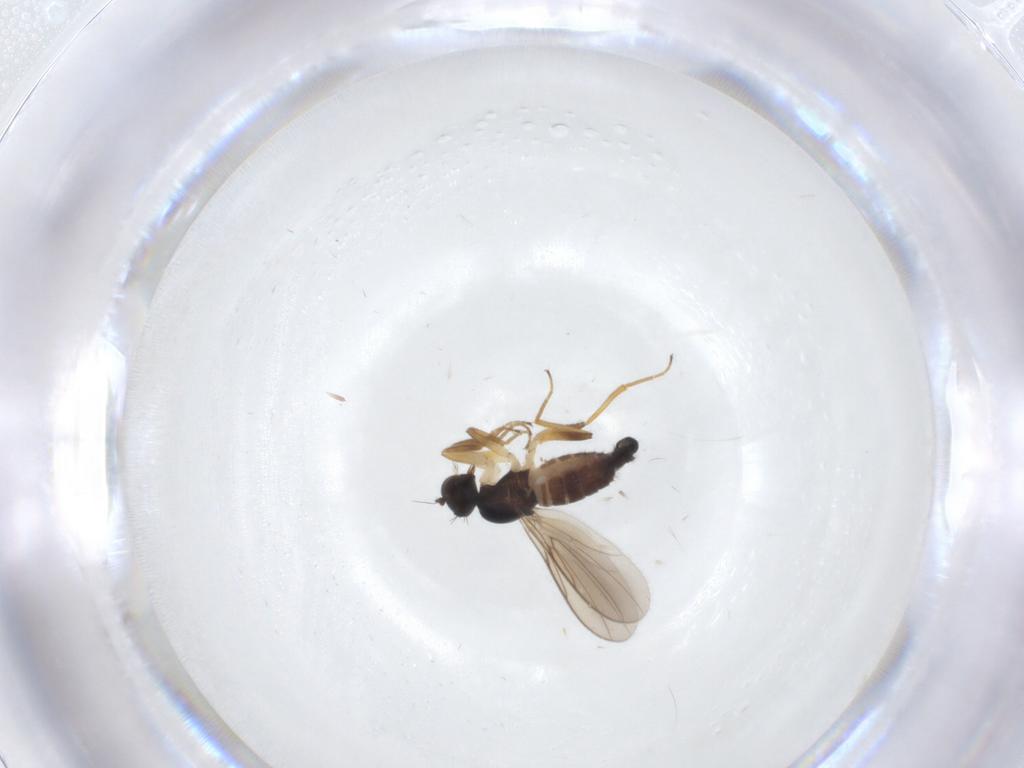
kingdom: Animalia
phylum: Arthropoda
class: Insecta
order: Diptera
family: Hybotidae
